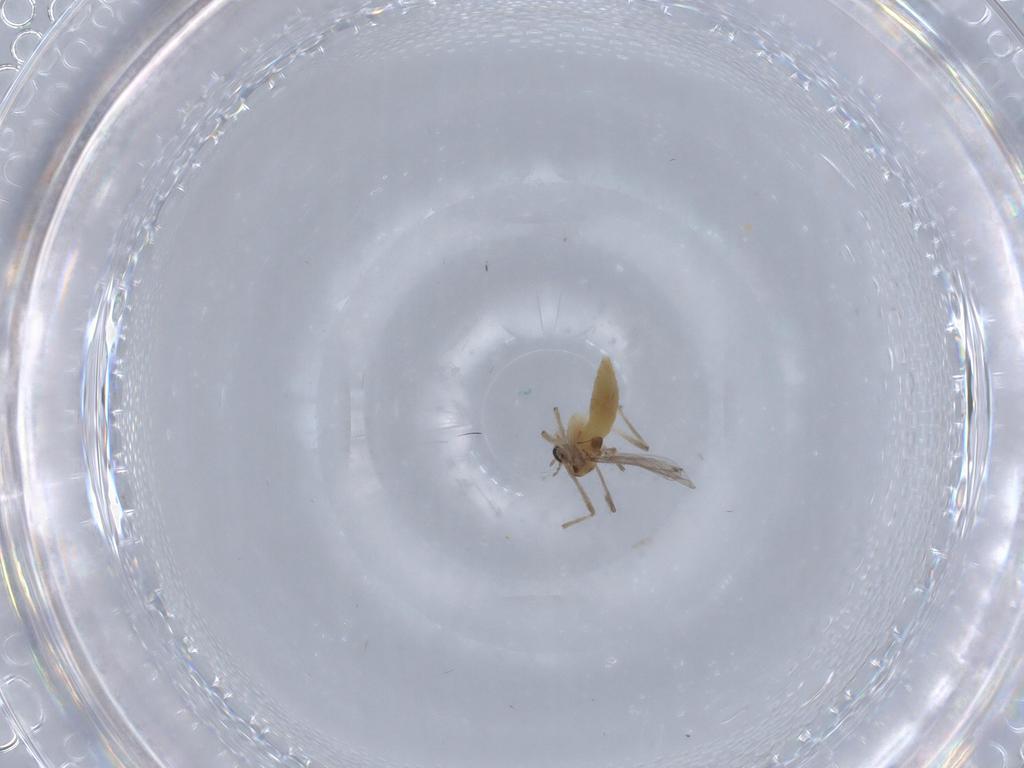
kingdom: Animalia
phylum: Arthropoda
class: Insecta
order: Diptera
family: Chironomidae
